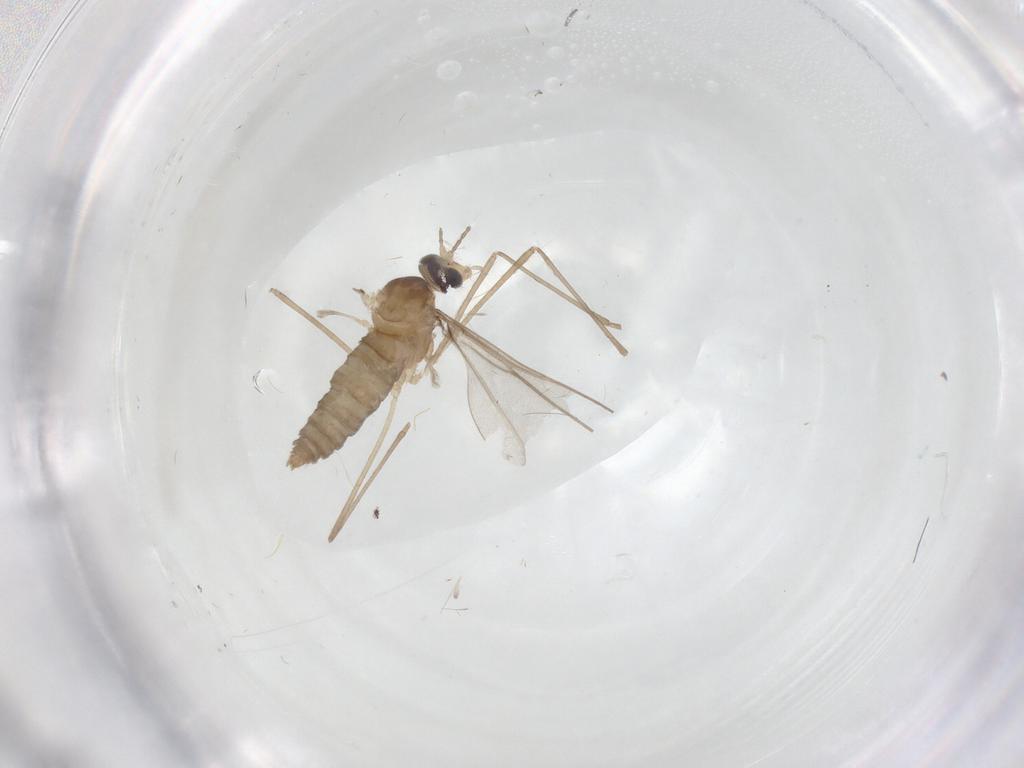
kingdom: Animalia
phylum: Arthropoda
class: Insecta
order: Diptera
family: Cecidomyiidae
